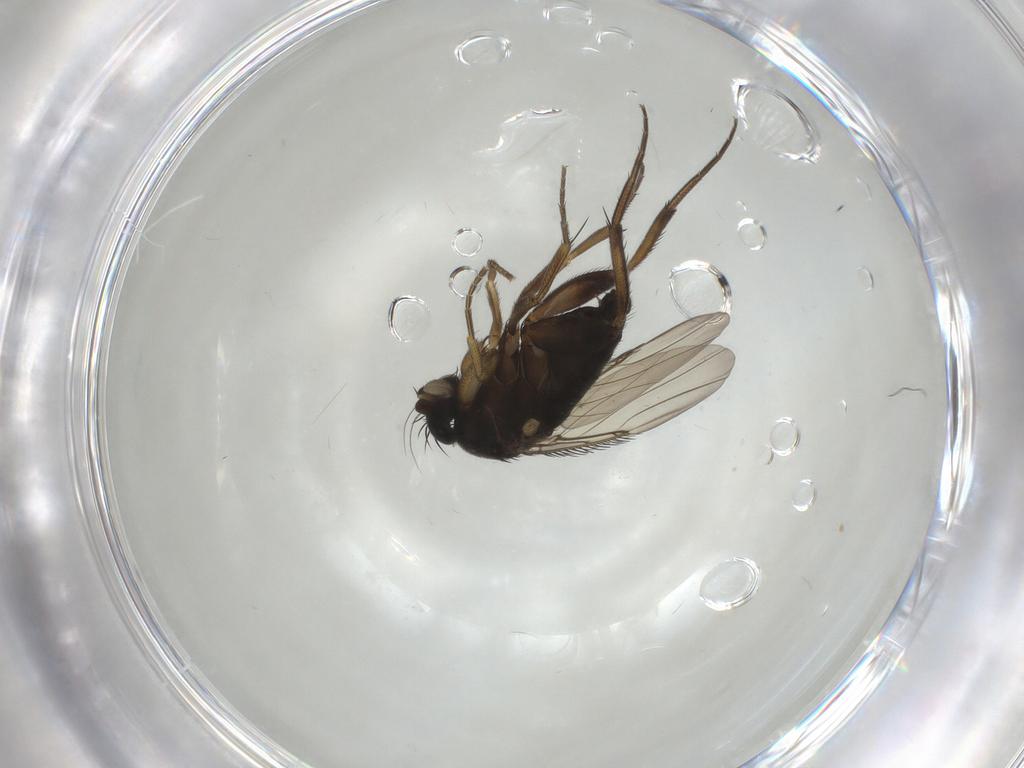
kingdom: Animalia
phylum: Arthropoda
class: Insecta
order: Diptera
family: Phoridae
